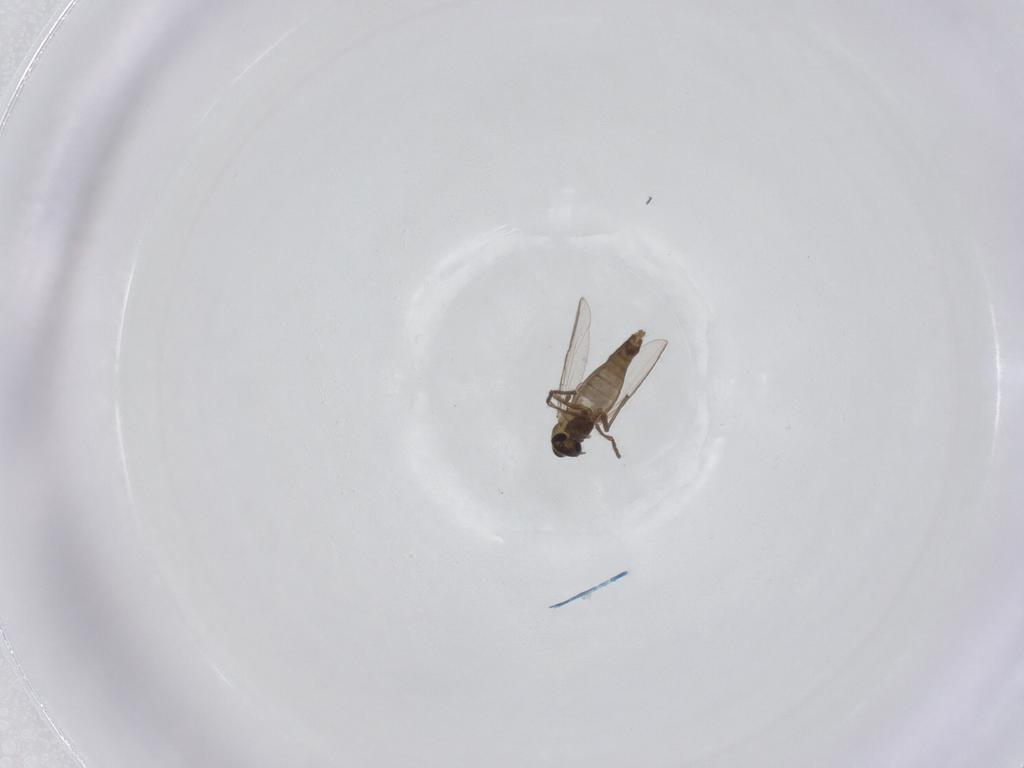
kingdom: Animalia
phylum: Arthropoda
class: Insecta
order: Diptera
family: Chironomidae
